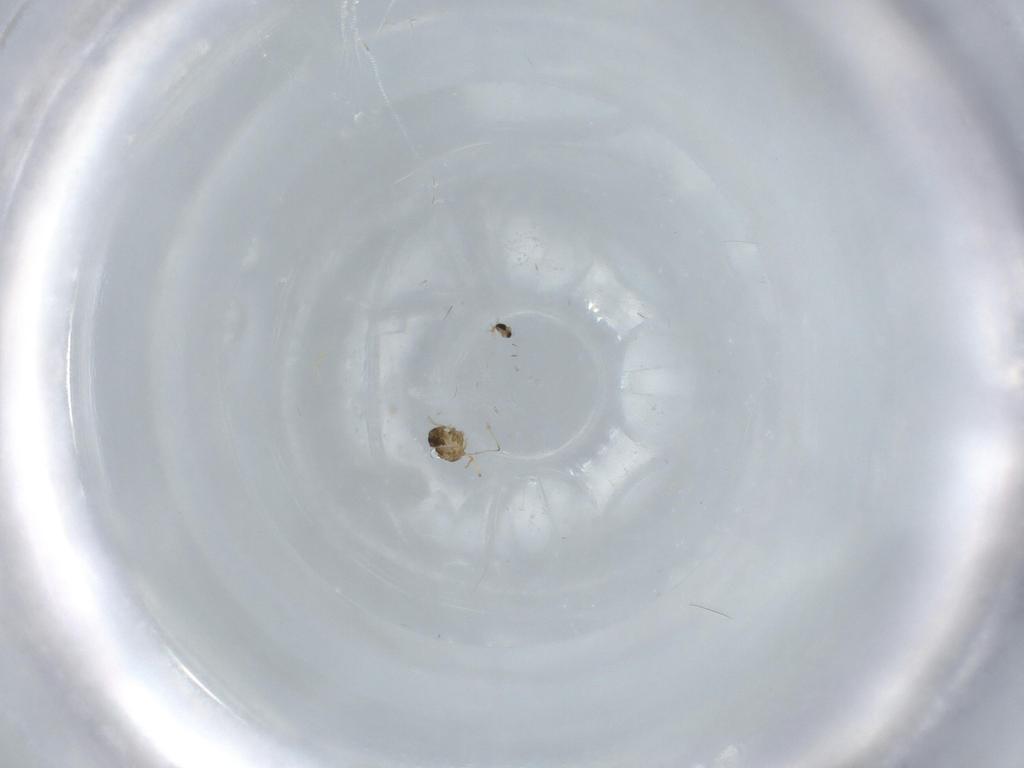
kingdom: Animalia
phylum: Arthropoda
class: Insecta
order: Diptera
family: Chironomidae
